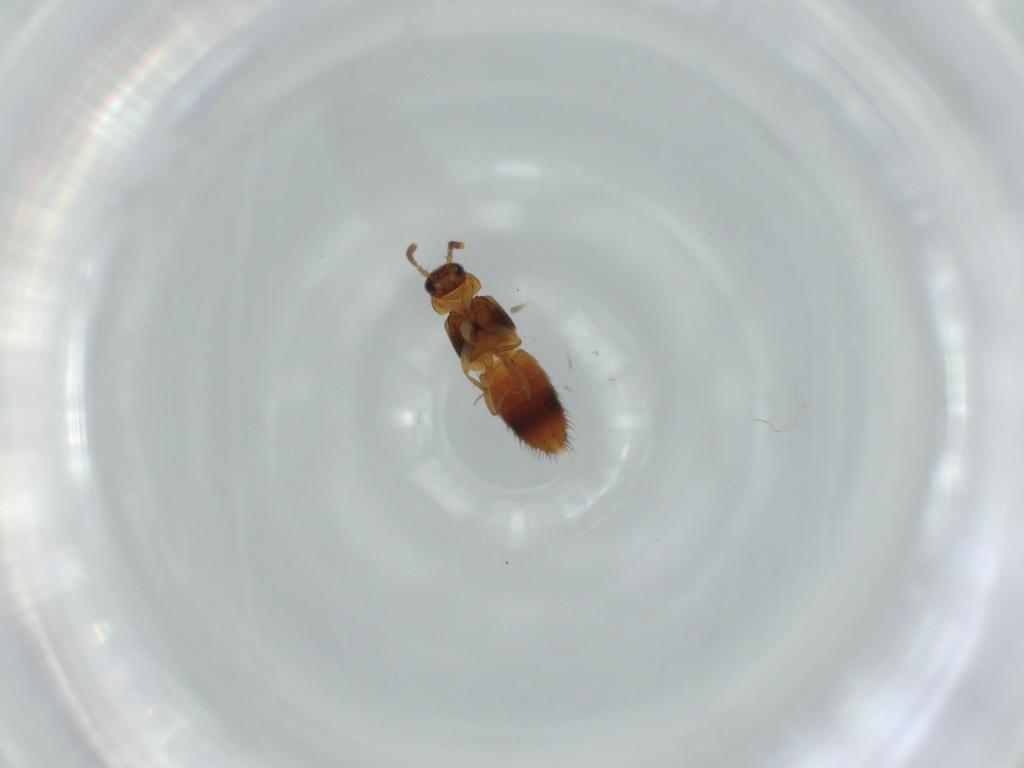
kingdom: Animalia
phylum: Arthropoda
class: Insecta
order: Coleoptera
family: Staphylinidae
